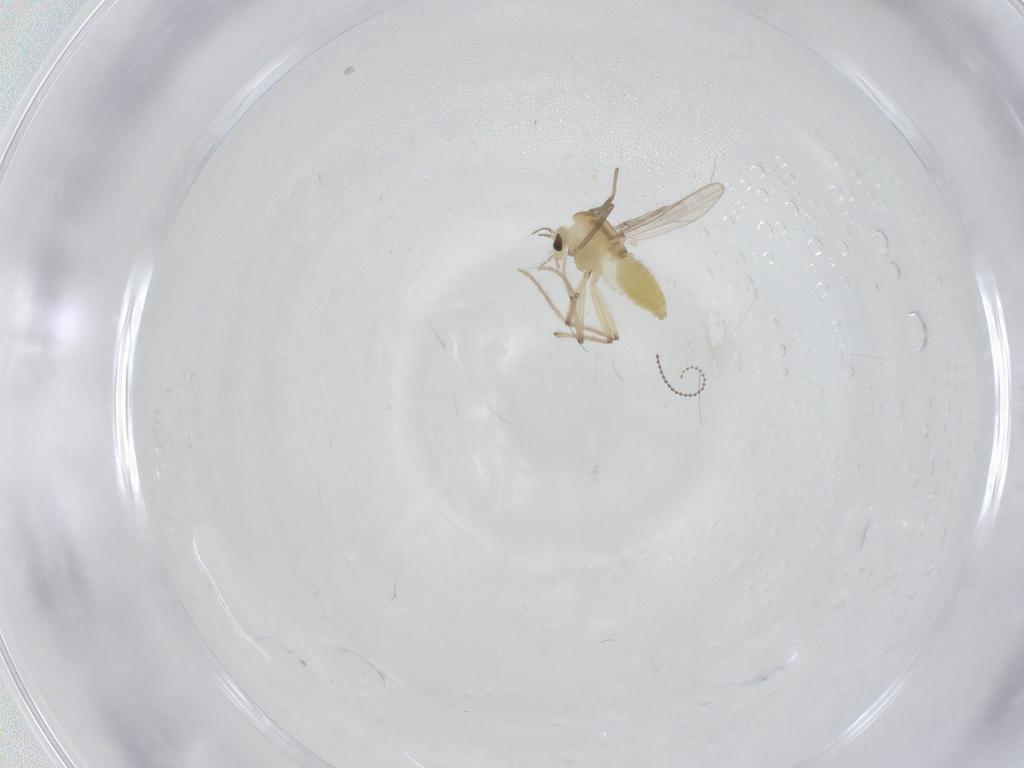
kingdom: Animalia
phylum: Arthropoda
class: Insecta
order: Diptera
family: Chironomidae
